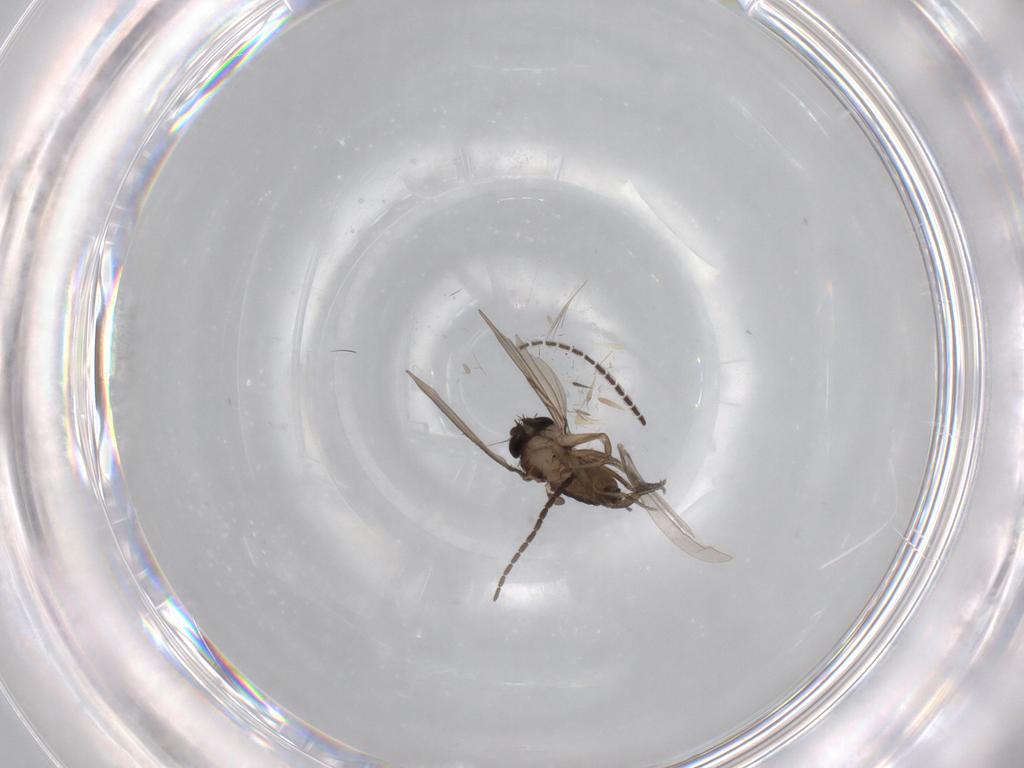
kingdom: Animalia
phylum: Arthropoda
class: Insecta
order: Diptera
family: Phoridae
